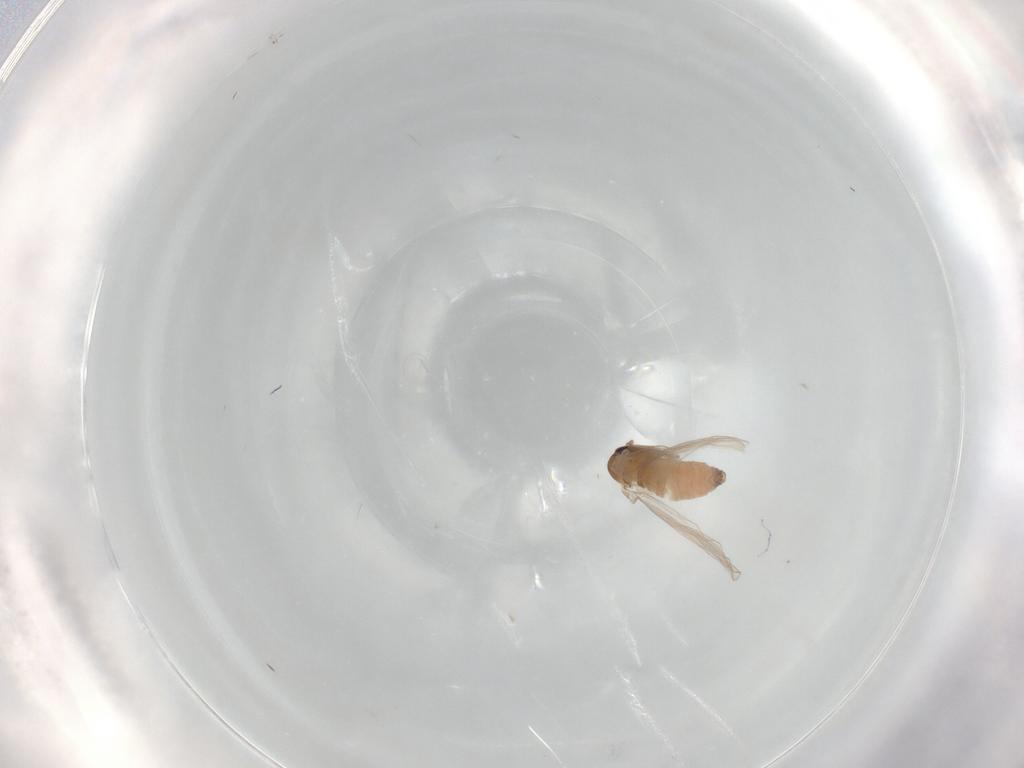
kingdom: Animalia
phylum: Arthropoda
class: Insecta
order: Diptera
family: Psychodidae
